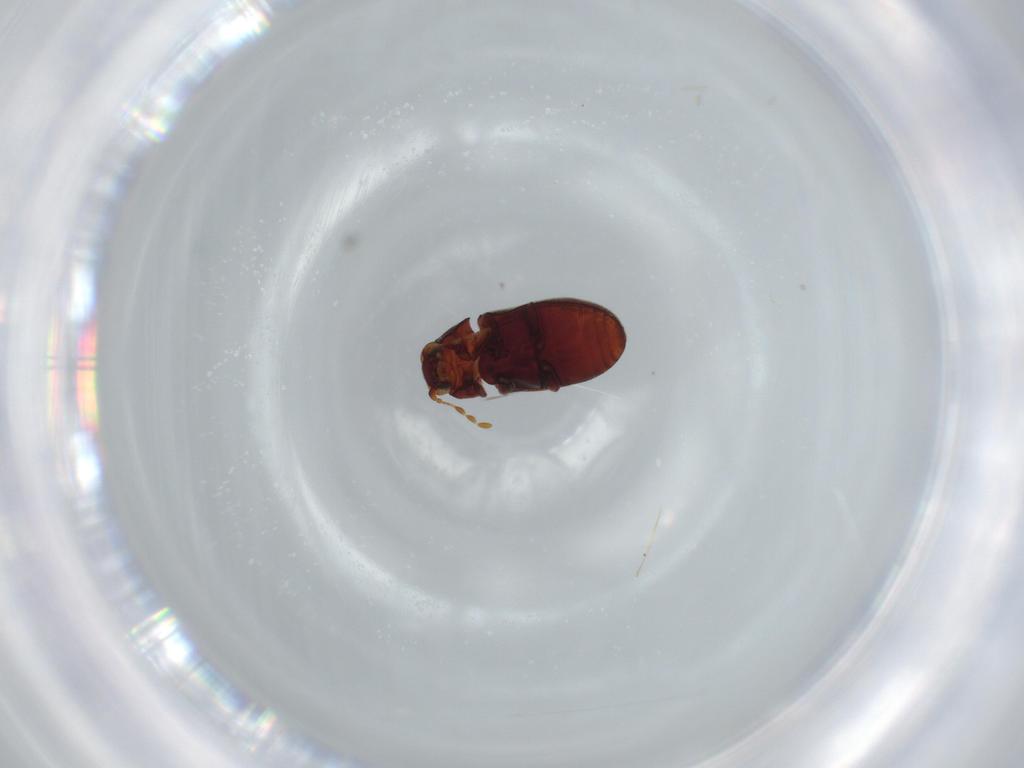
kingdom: Animalia
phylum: Arthropoda
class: Insecta
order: Coleoptera
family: Ptinidae
